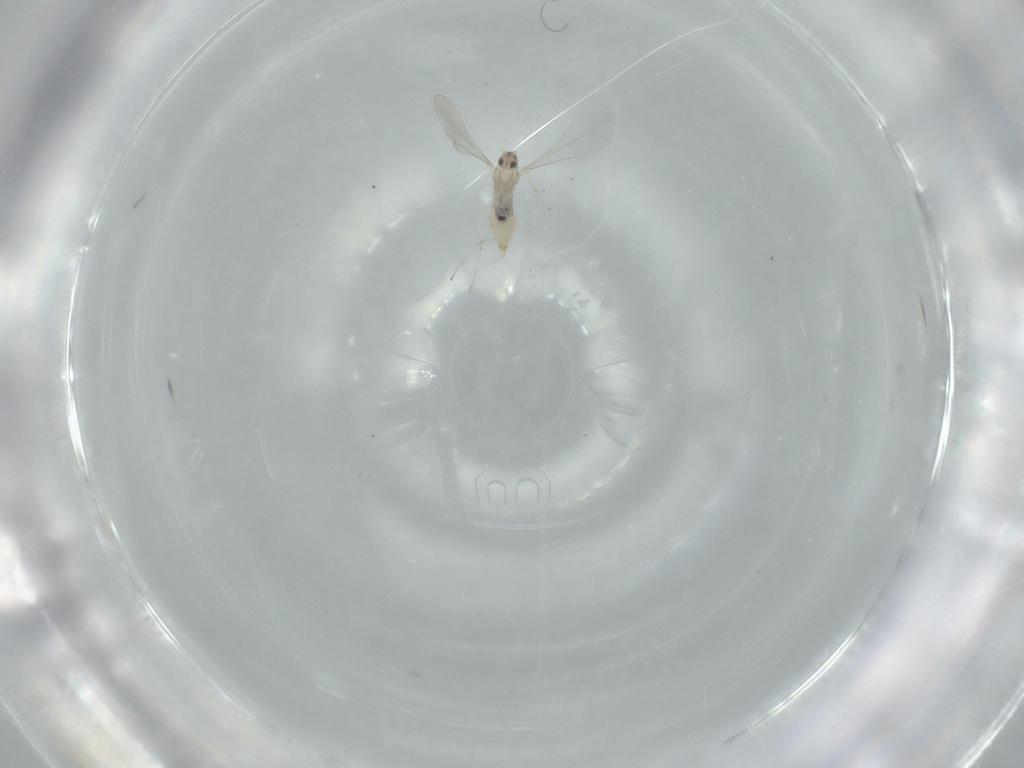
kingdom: Animalia
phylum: Arthropoda
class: Insecta
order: Diptera
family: Cecidomyiidae
